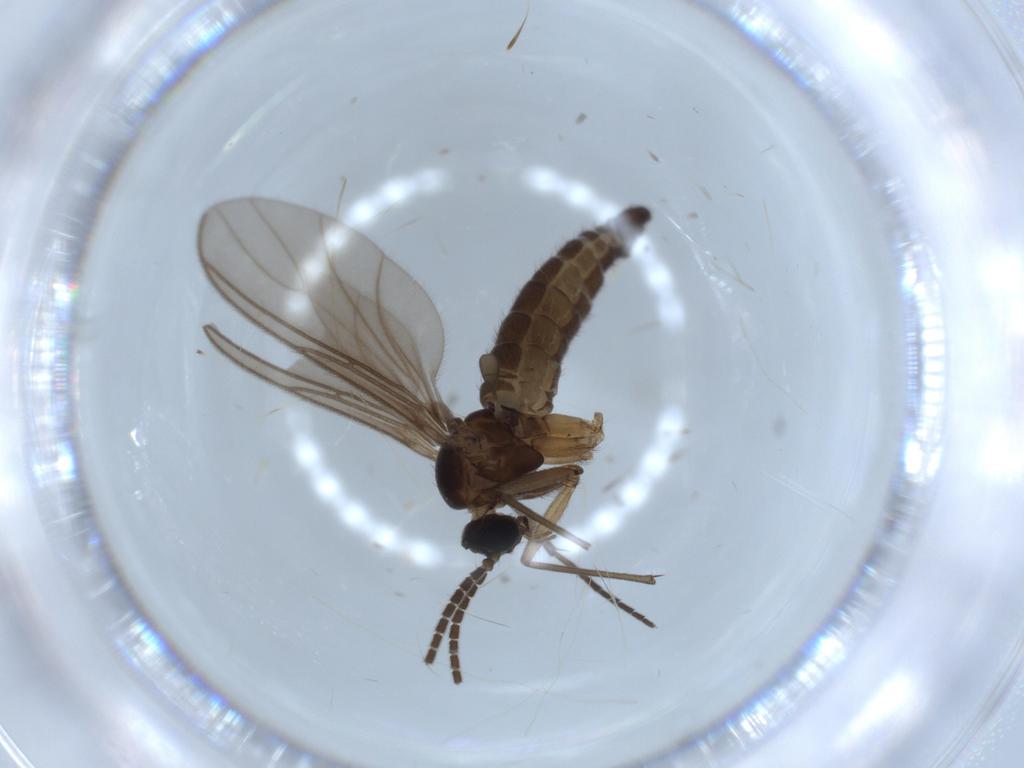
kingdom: Animalia
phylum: Arthropoda
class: Insecta
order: Diptera
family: Sciaridae
